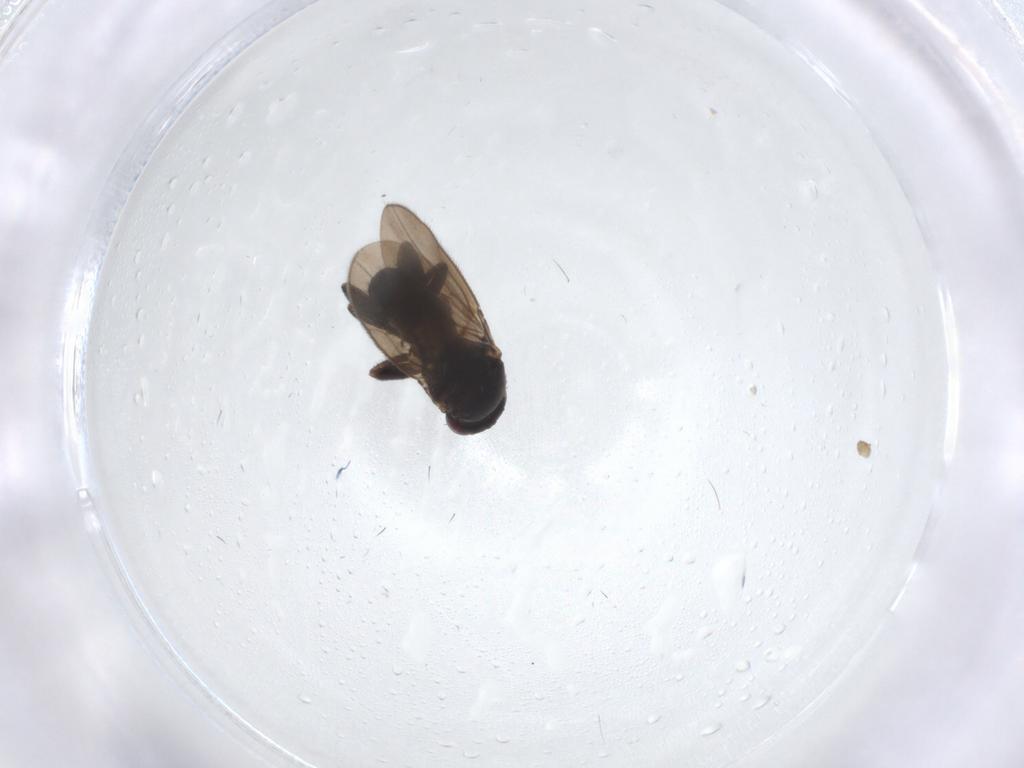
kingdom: Animalia
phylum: Arthropoda
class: Insecta
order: Diptera
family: Sphaeroceridae
